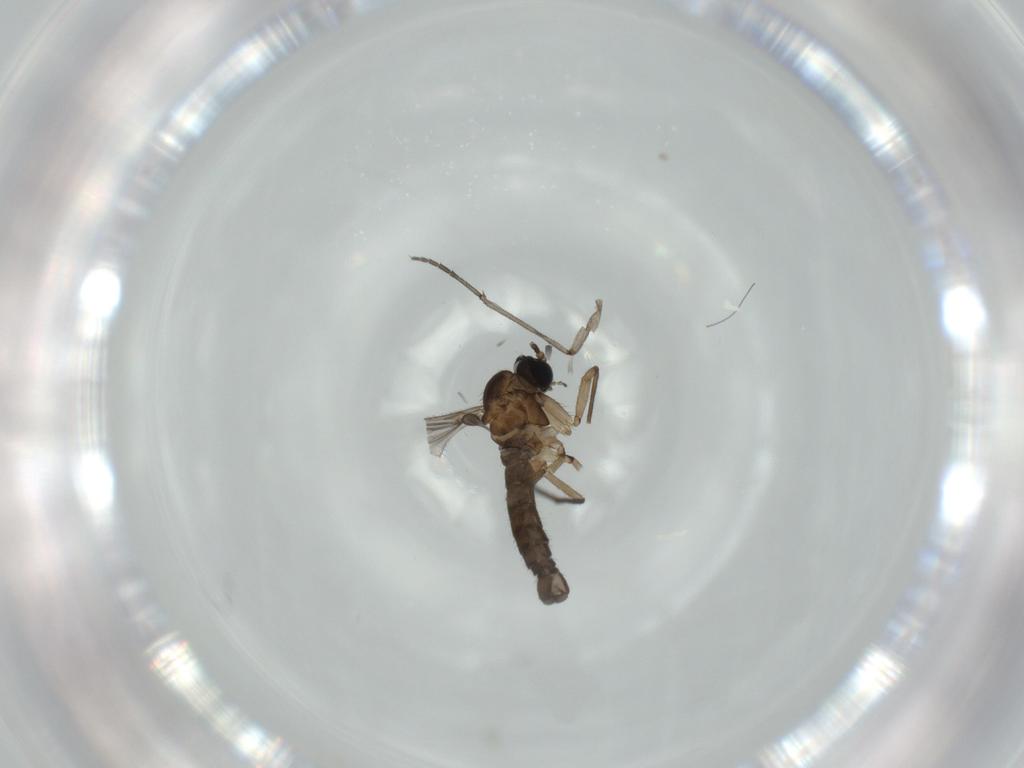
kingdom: Animalia
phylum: Arthropoda
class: Insecta
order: Diptera
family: Sciaridae
